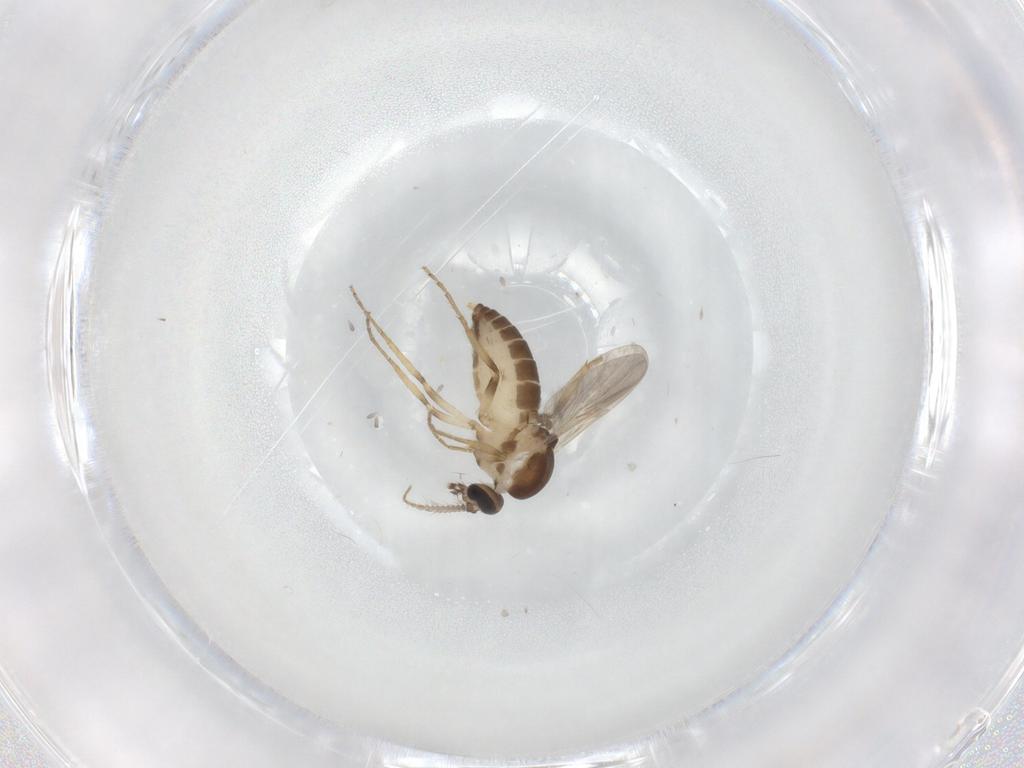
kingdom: Animalia
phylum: Arthropoda
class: Insecta
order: Diptera
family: Ceratopogonidae
